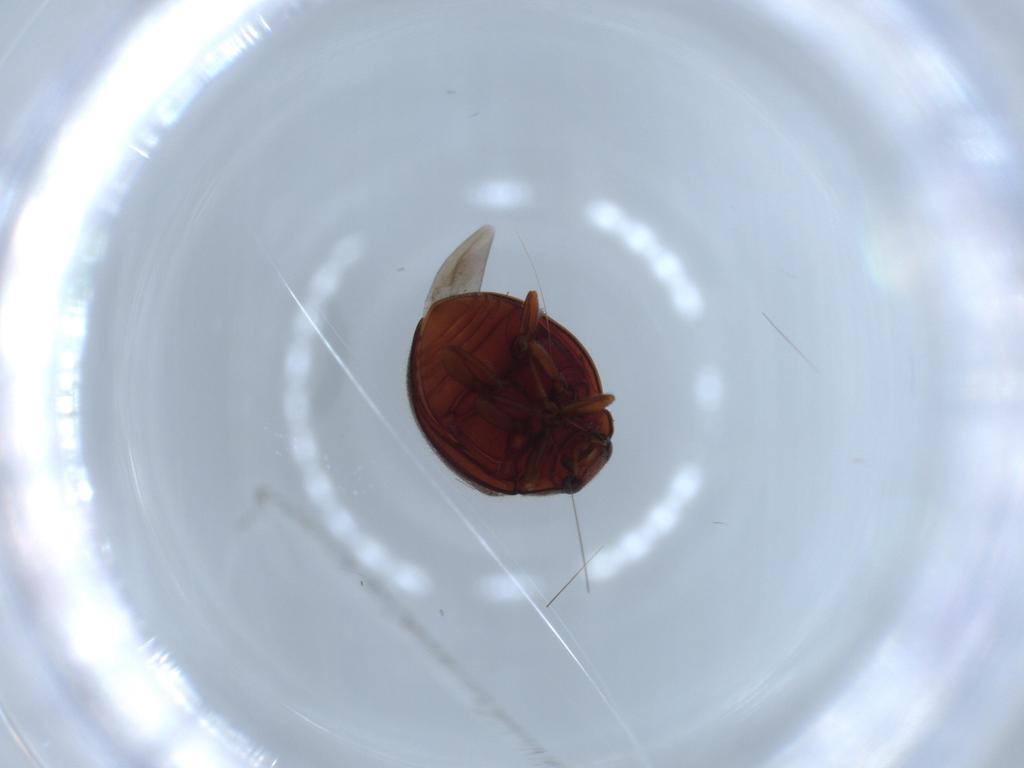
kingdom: Animalia
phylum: Arthropoda
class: Insecta
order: Coleoptera
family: Coccinellidae
